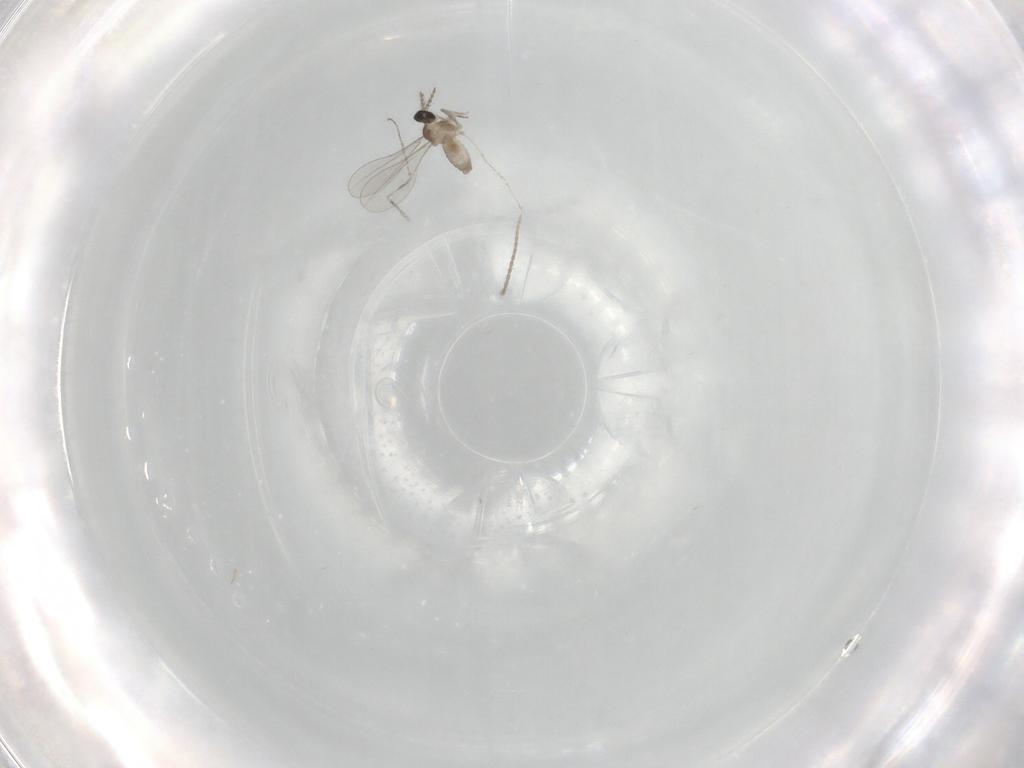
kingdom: Animalia
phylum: Arthropoda
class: Insecta
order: Diptera
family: Cecidomyiidae
